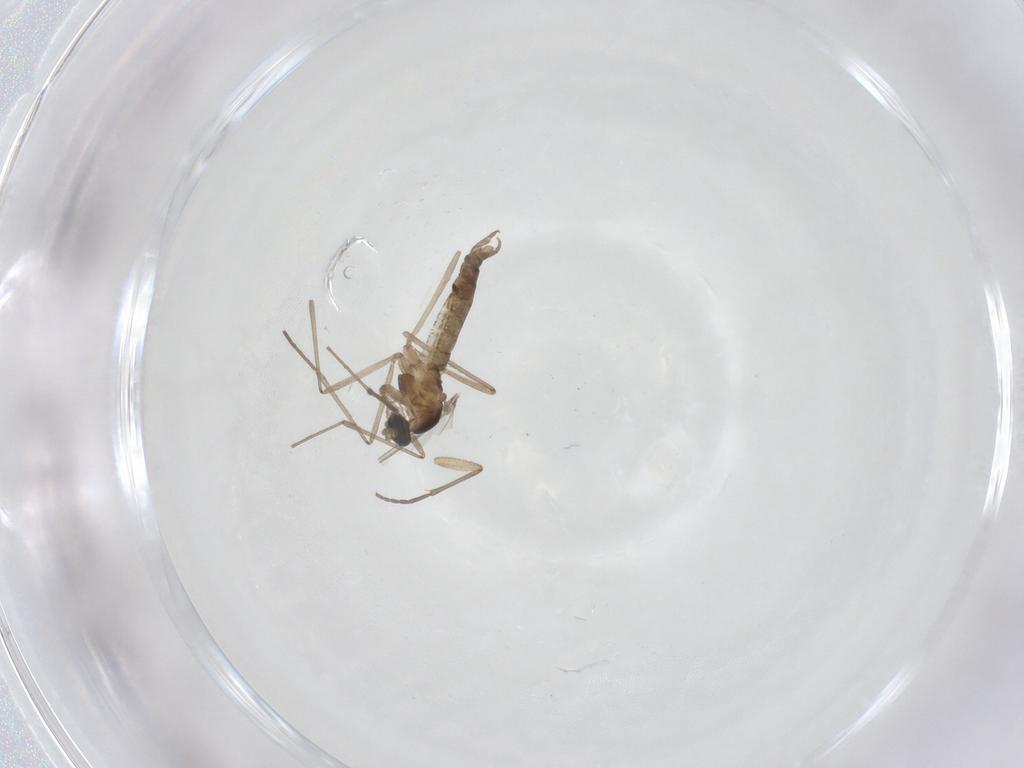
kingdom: Animalia
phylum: Arthropoda
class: Insecta
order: Diptera
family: Cecidomyiidae
